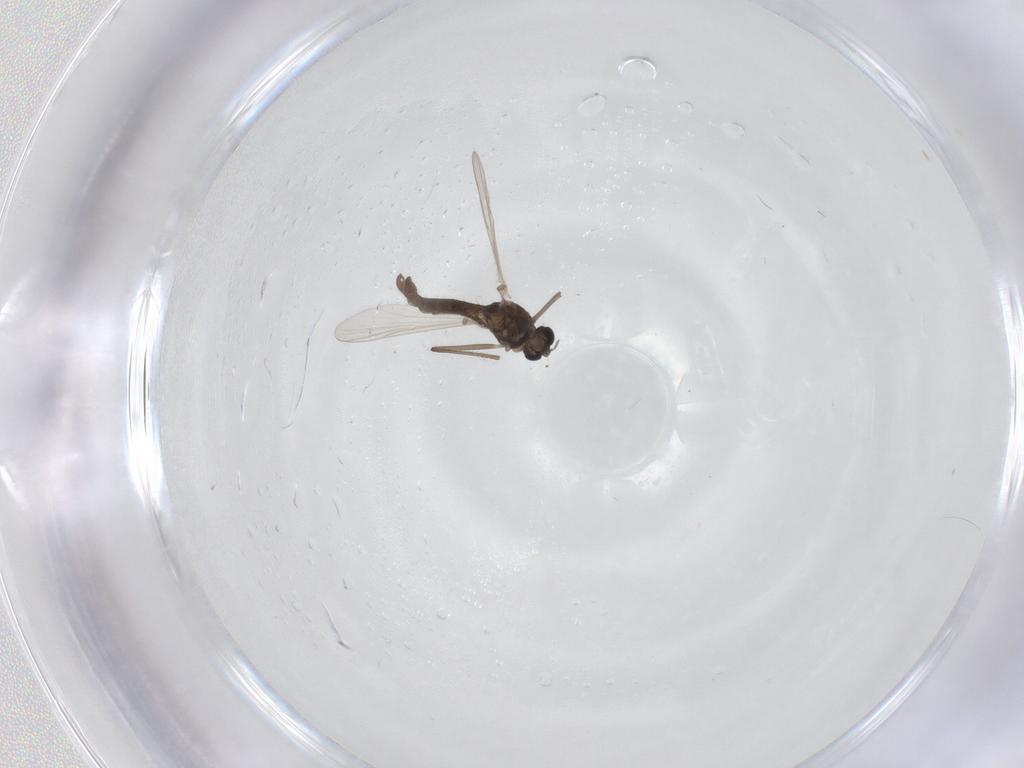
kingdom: Animalia
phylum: Arthropoda
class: Insecta
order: Diptera
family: Chironomidae
